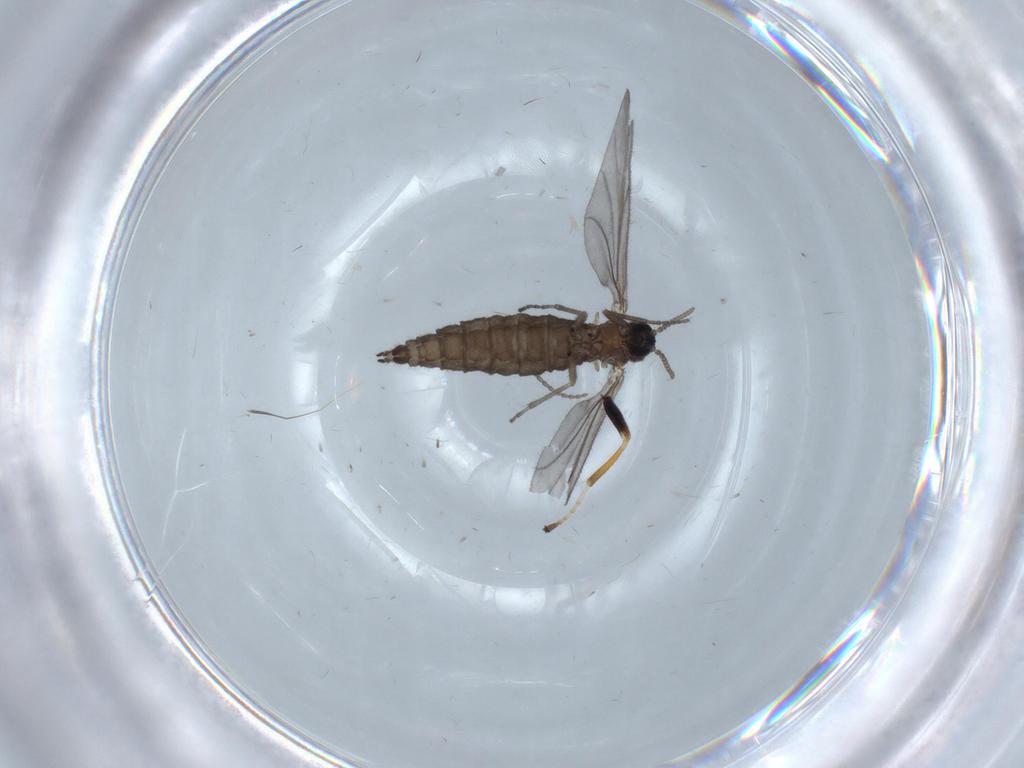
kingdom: Animalia
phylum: Arthropoda
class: Insecta
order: Diptera
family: Cecidomyiidae
